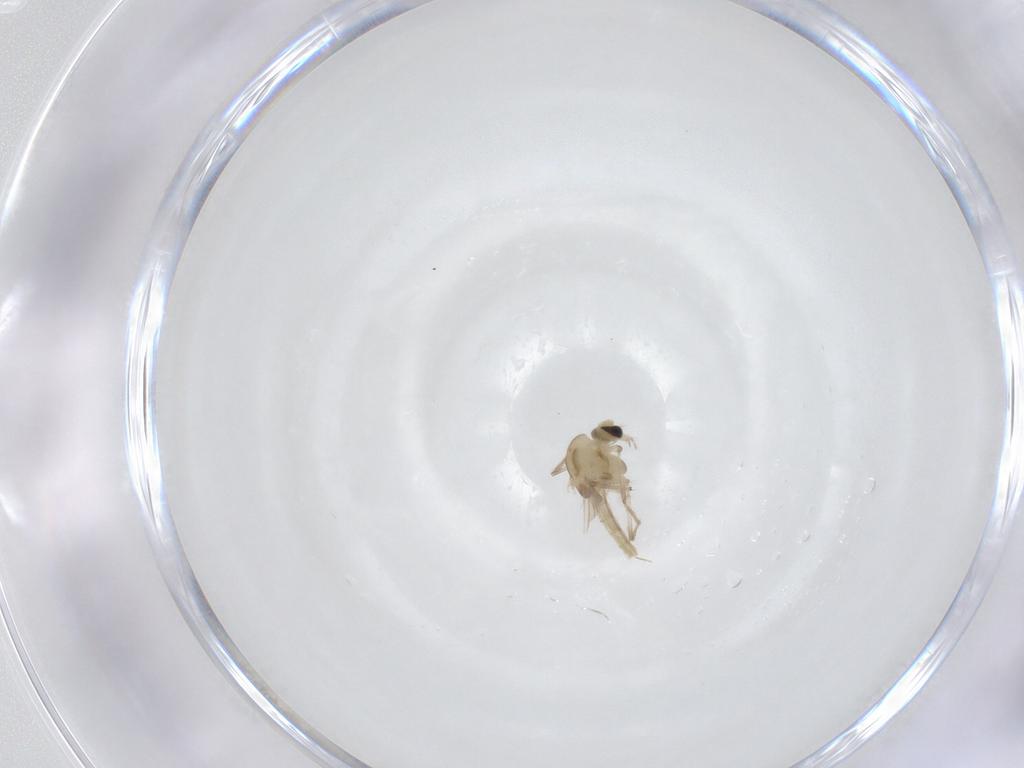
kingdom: Animalia
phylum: Arthropoda
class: Insecta
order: Diptera
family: Chironomidae
